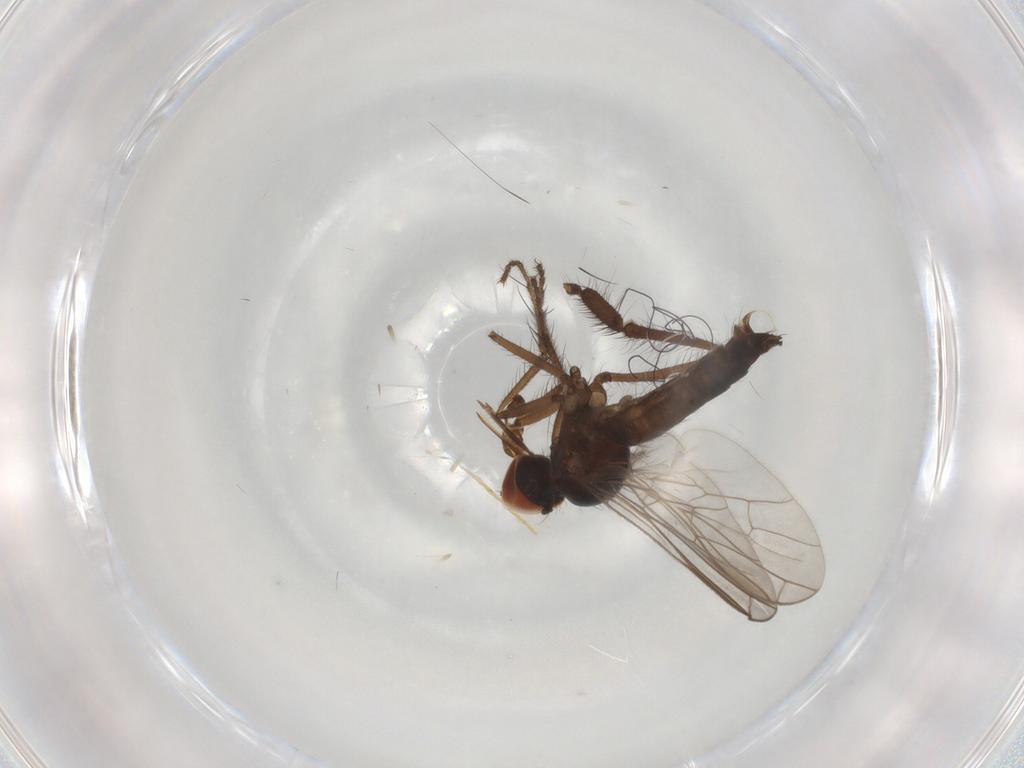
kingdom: Animalia
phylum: Arthropoda
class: Insecta
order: Diptera
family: Empididae
